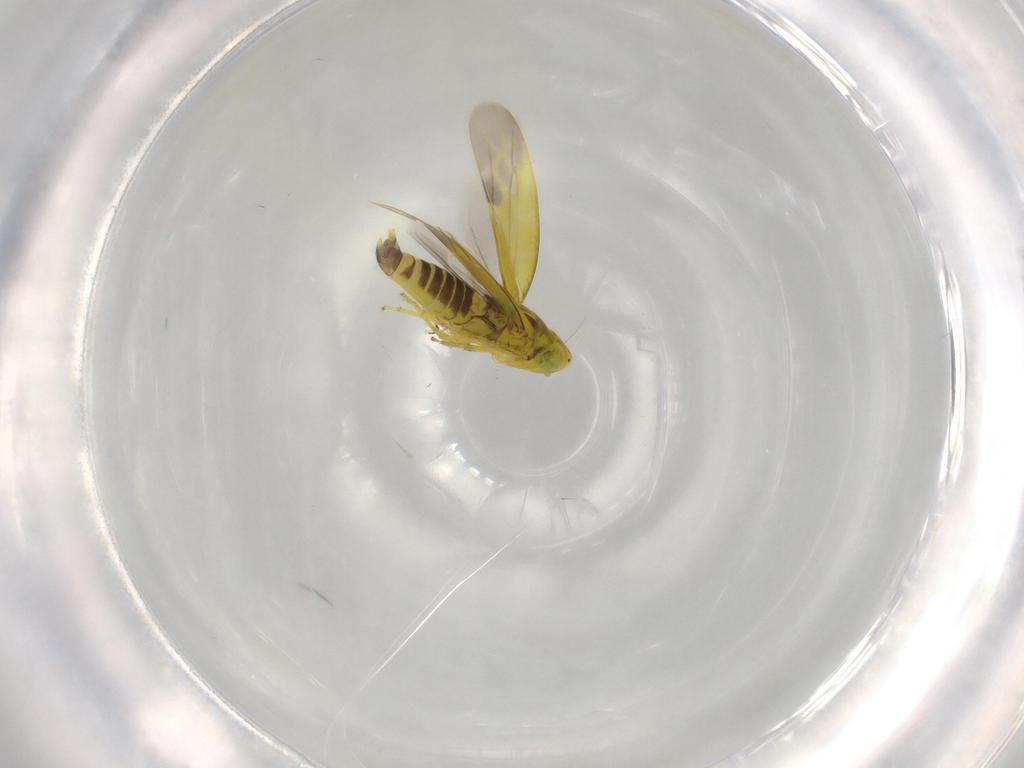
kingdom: Animalia
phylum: Arthropoda
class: Insecta
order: Hemiptera
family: Cicadellidae
